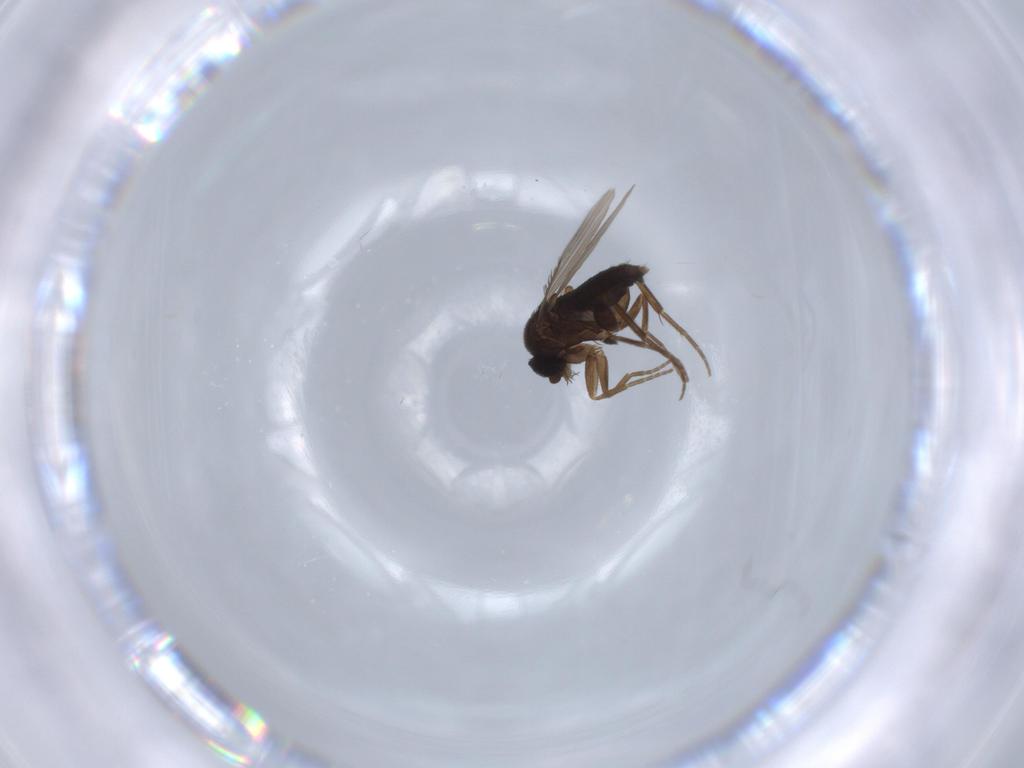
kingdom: Animalia
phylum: Arthropoda
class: Insecta
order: Diptera
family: Phoridae
